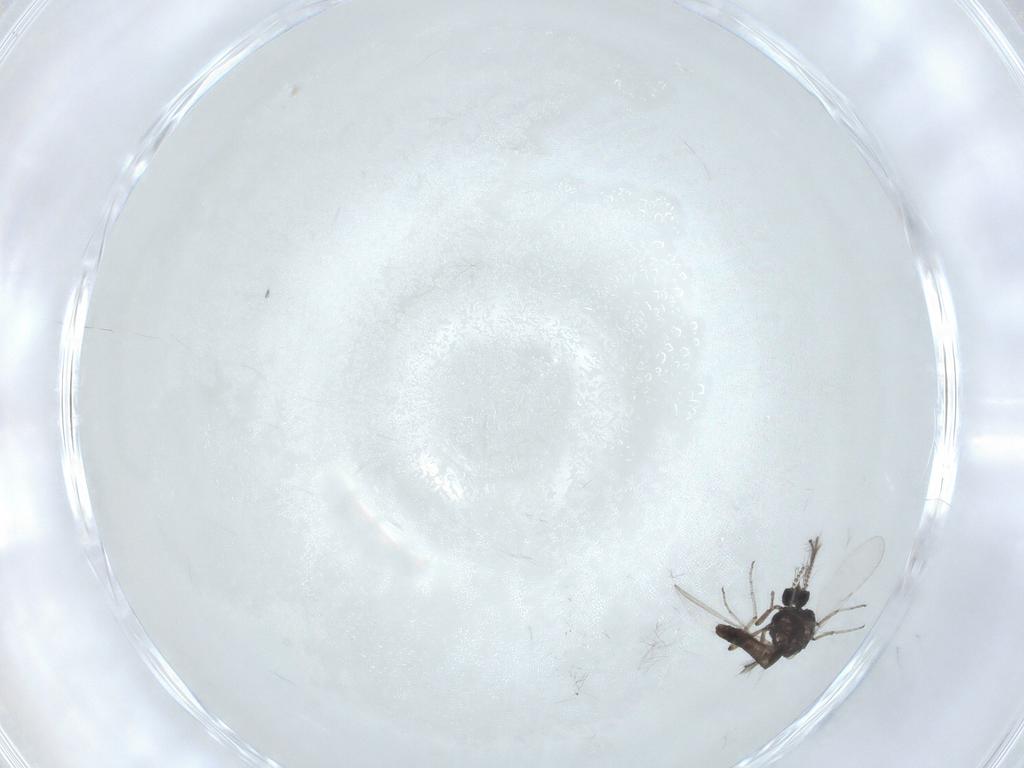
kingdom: Animalia
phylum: Arthropoda
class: Insecta
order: Diptera
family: Ceratopogonidae
